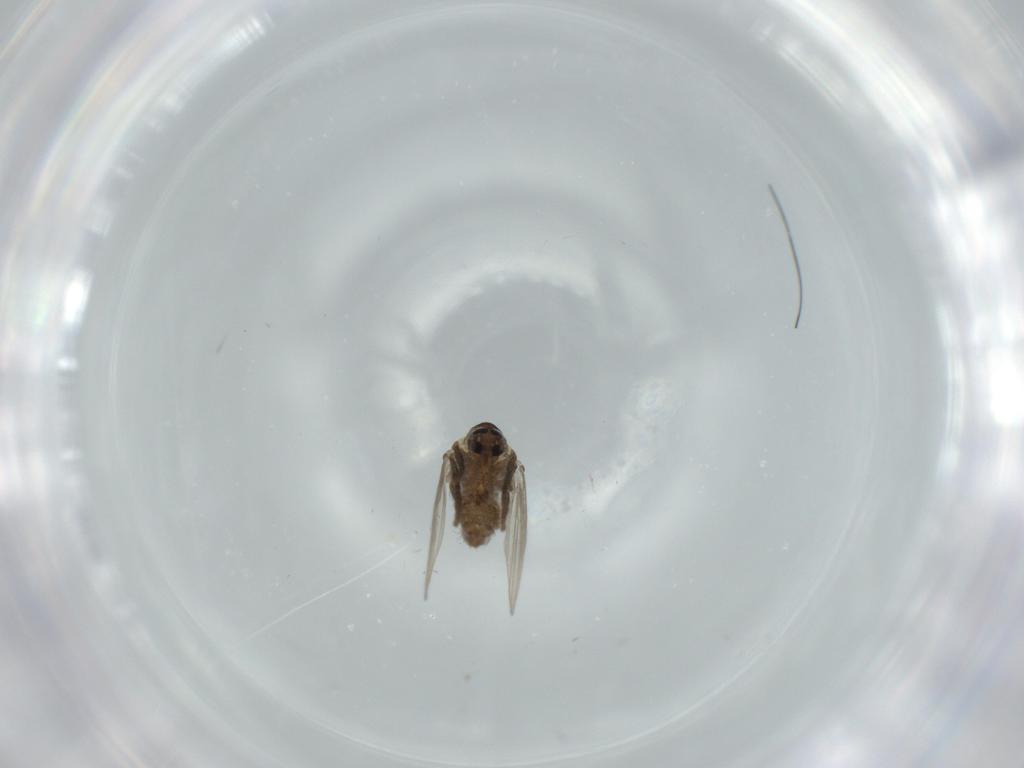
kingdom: Animalia
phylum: Arthropoda
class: Insecta
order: Diptera
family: Cecidomyiidae
